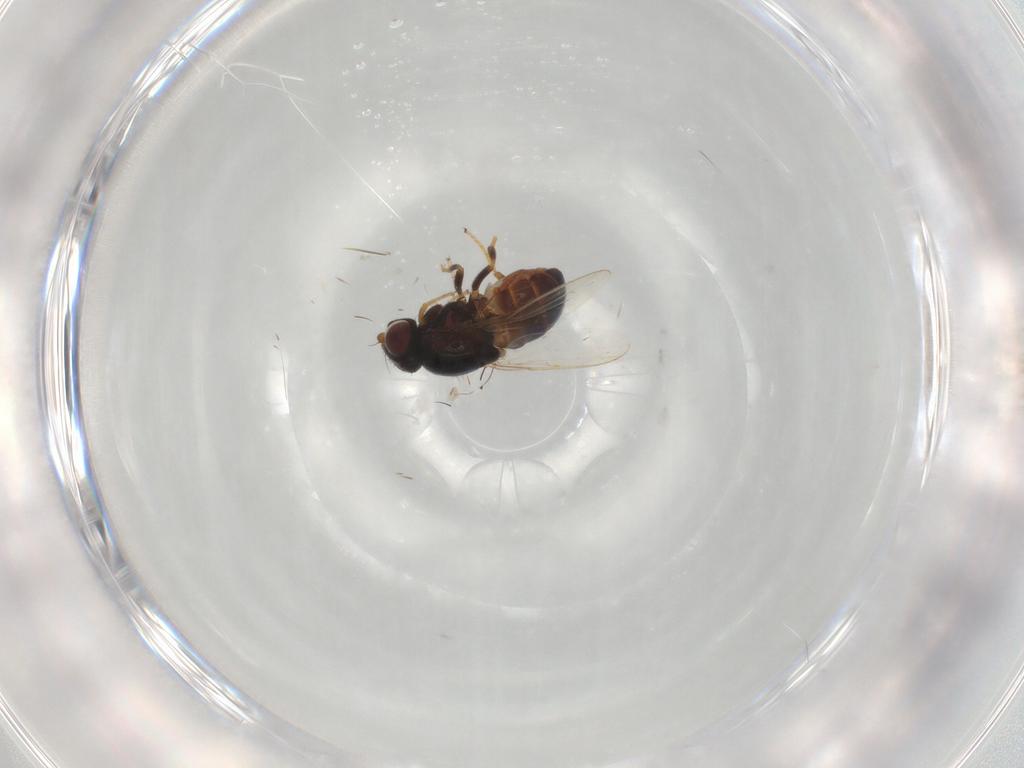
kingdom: Animalia
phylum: Arthropoda
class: Insecta
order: Diptera
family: Chloropidae
